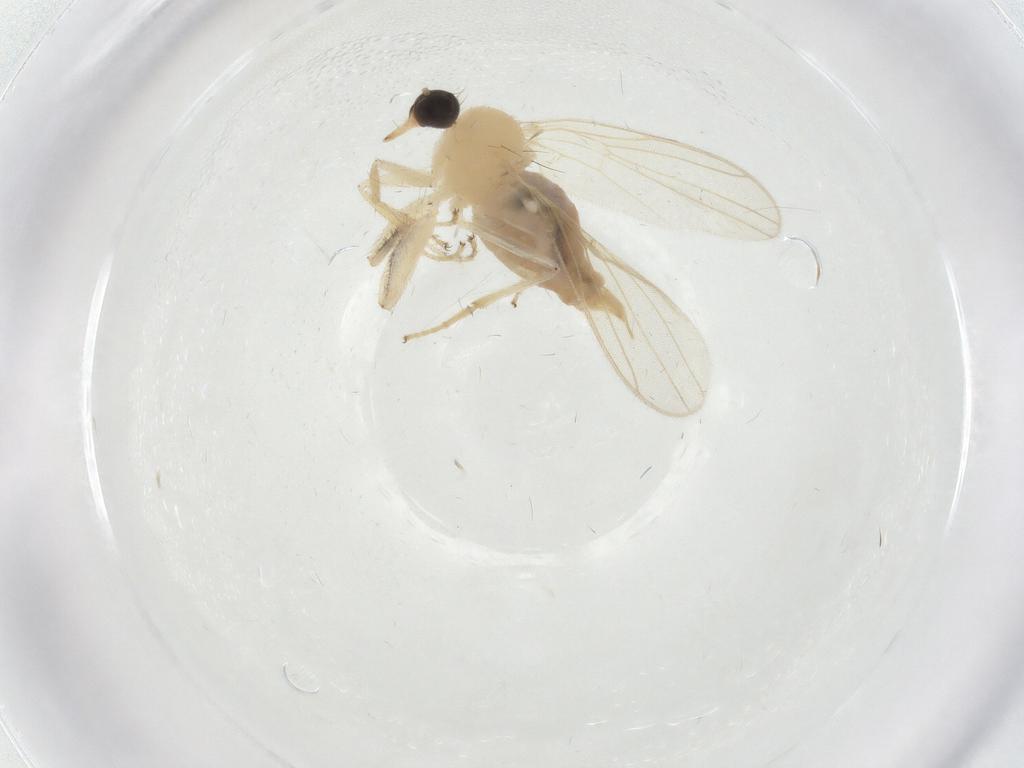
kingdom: Animalia
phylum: Arthropoda
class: Insecta
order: Diptera
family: Hybotidae
